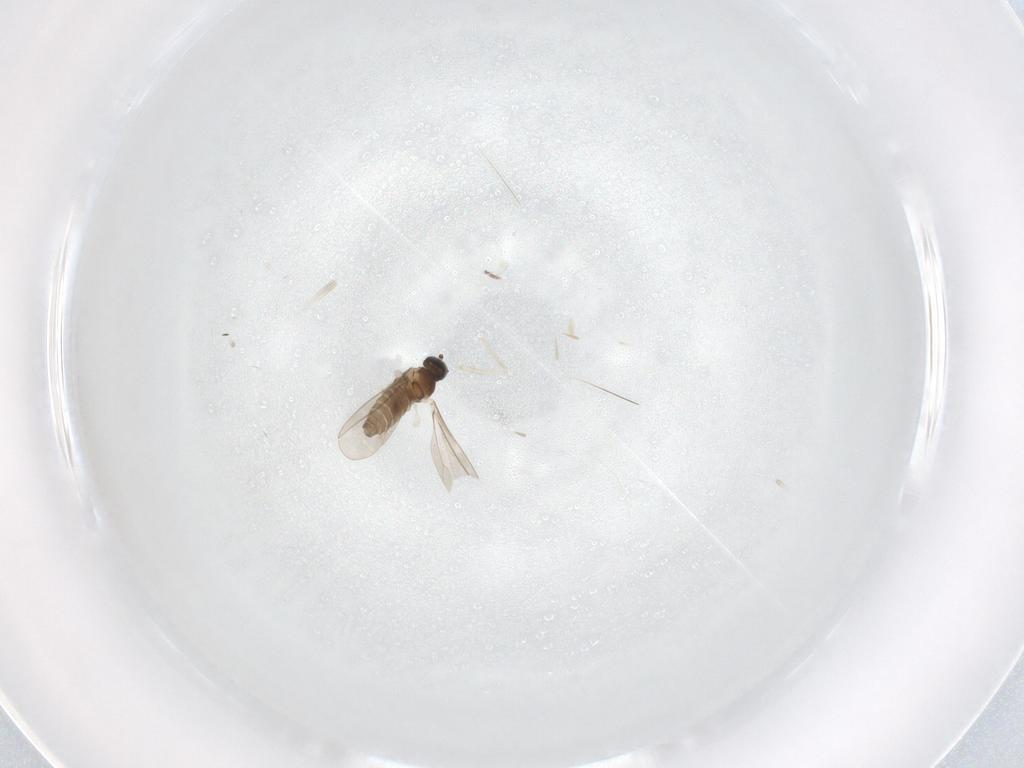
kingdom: Animalia
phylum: Arthropoda
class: Insecta
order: Diptera
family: Cecidomyiidae
